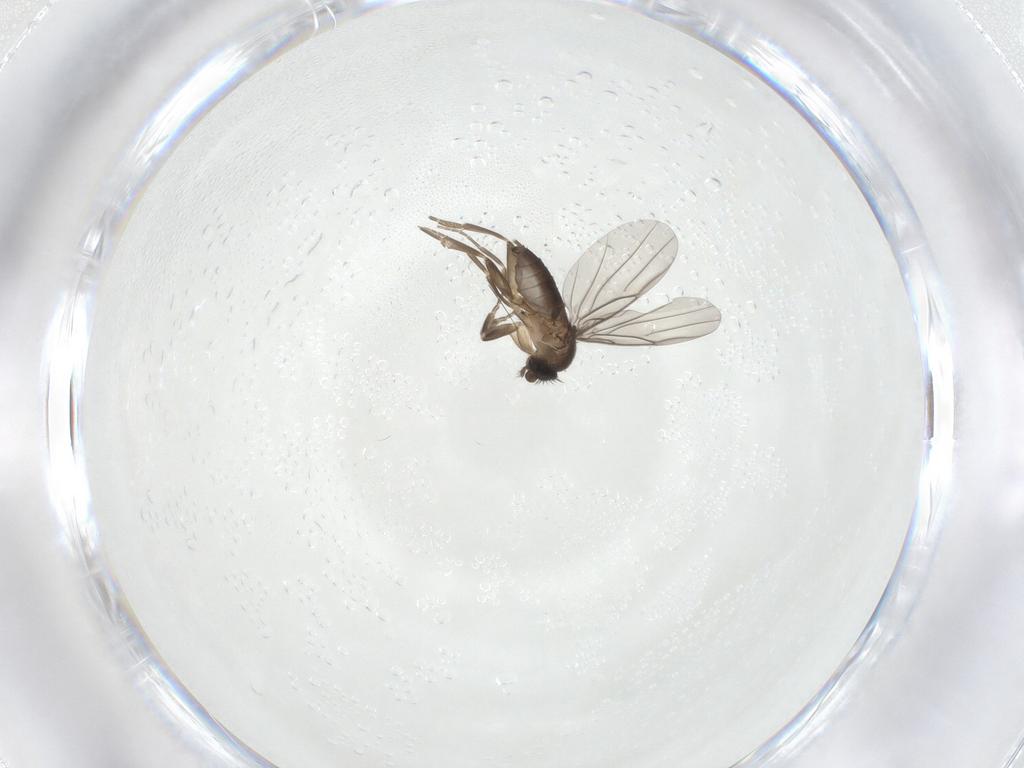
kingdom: Animalia
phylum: Arthropoda
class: Insecta
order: Diptera
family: Phoridae
